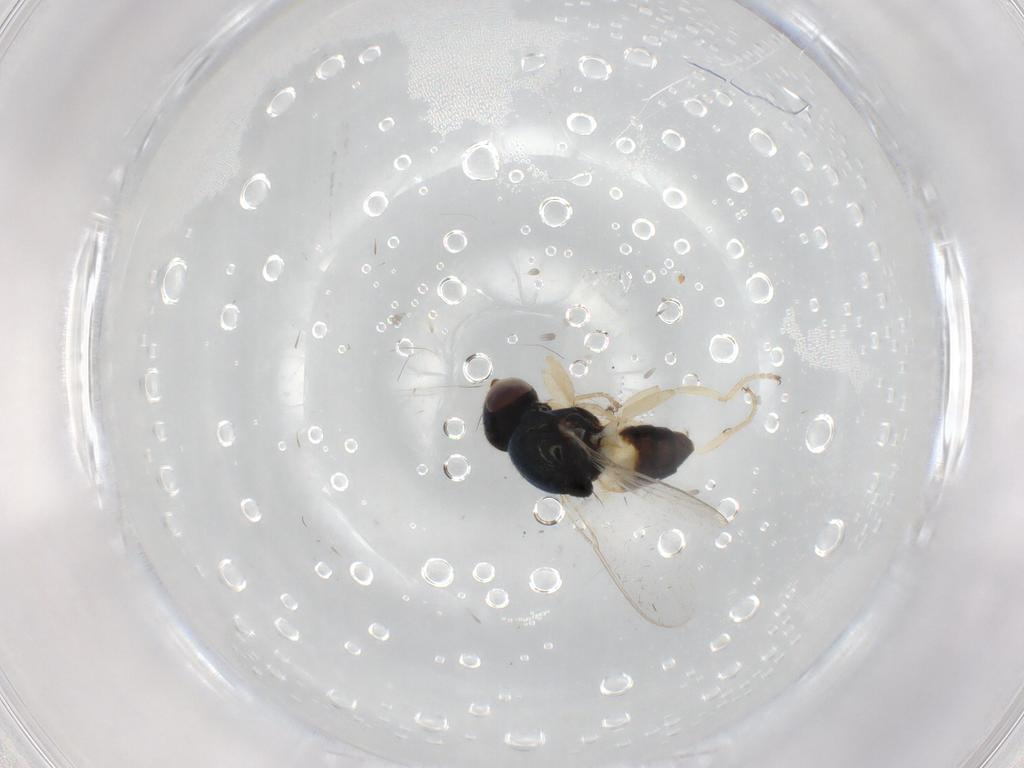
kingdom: Animalia
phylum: Arthropoda
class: Insecta
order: Diptera
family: Chloropidae
